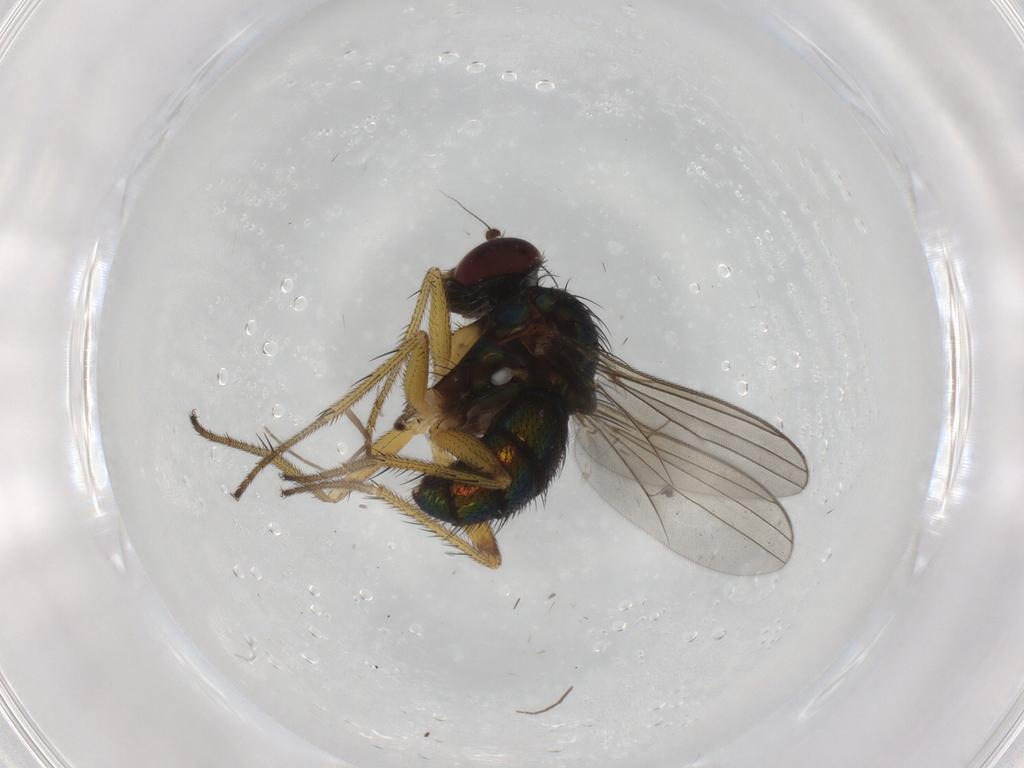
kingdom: Animalia
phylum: Arthropoda
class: Insecta
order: Diptera
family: Dolichopodidae
